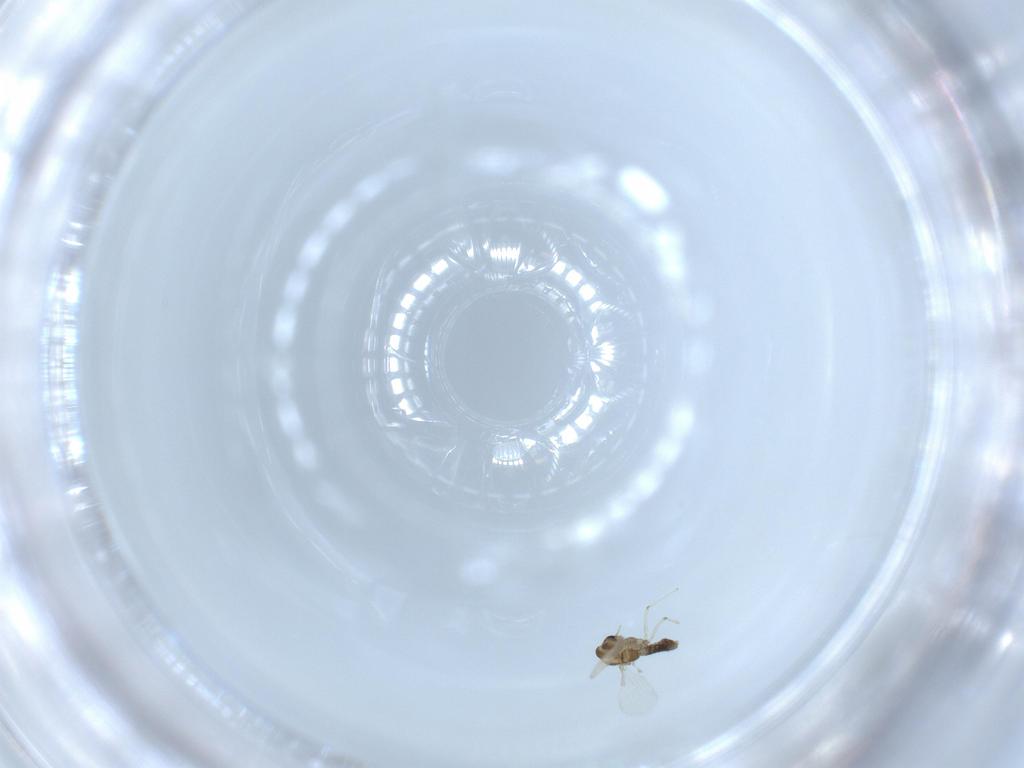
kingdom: Animalia
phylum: Arthropoda
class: Insecta
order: Diptera
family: Chironomidae
